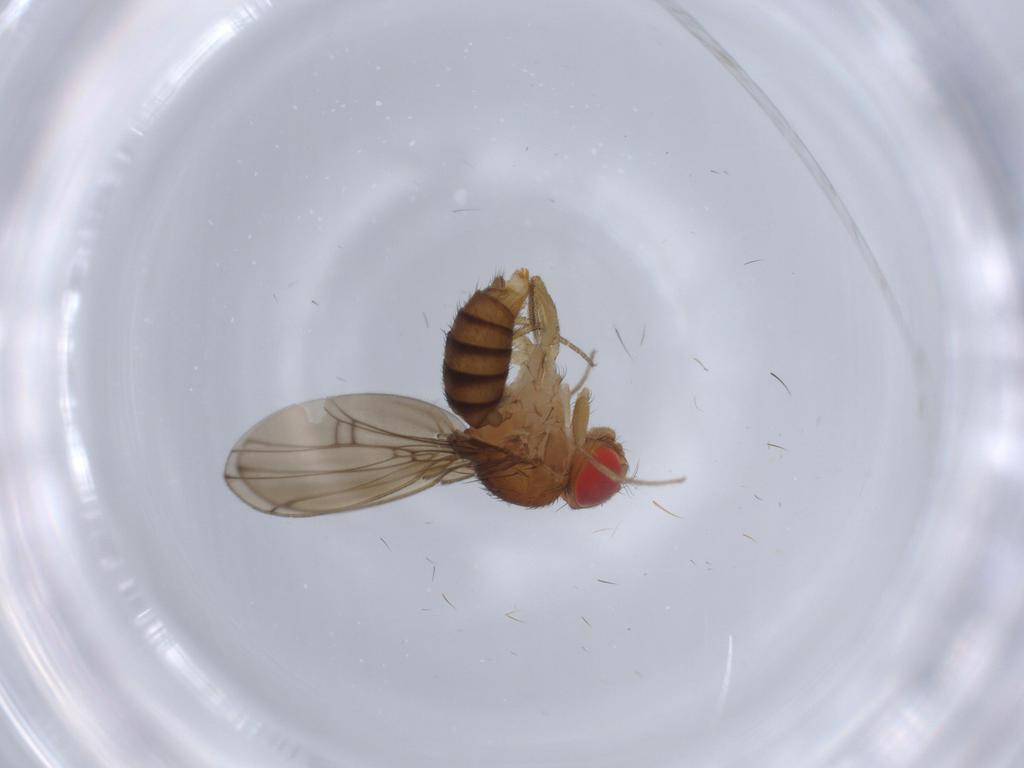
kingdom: Animalia
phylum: Arthropoda
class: Insecta
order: Diptera
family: Drosophilidae
